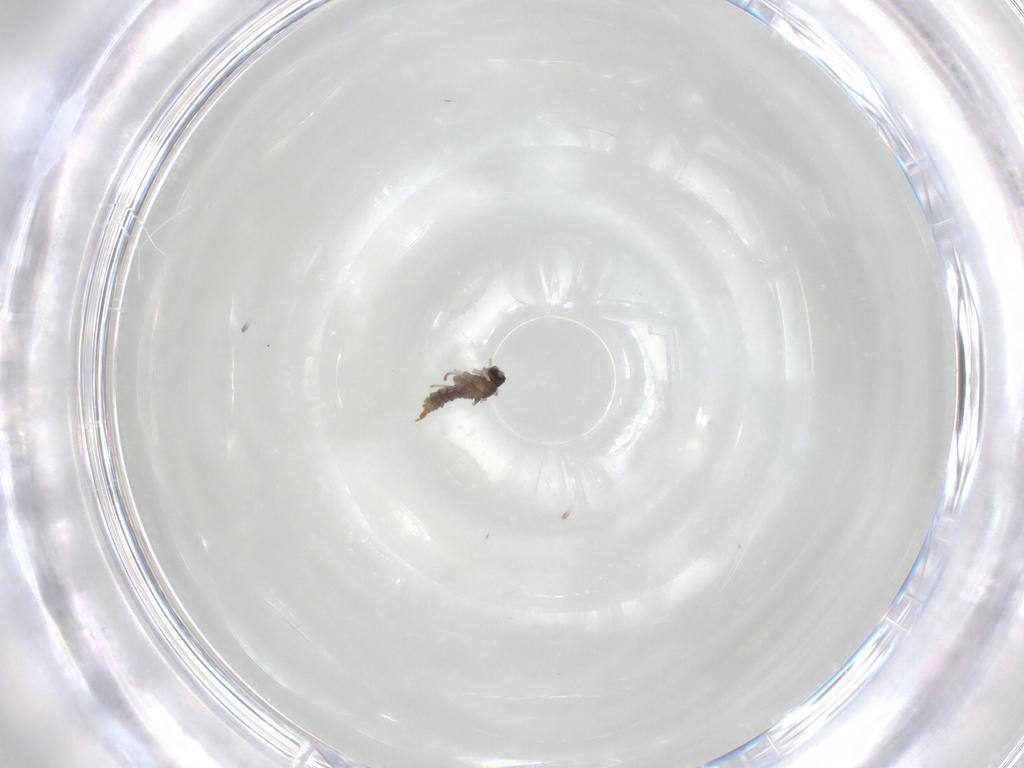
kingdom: Animalia
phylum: Arthropoda
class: Insecta
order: Diptera
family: Cecidomyiidae
